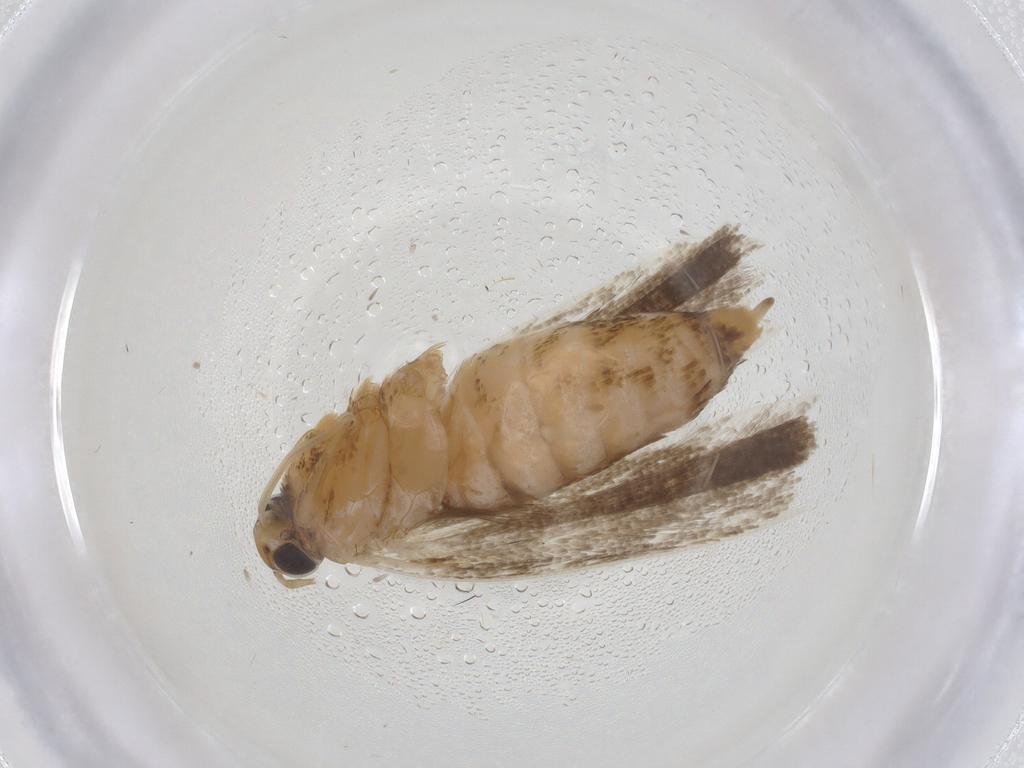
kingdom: Animalia
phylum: Arthropoda
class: Insecta
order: Lepidoptera
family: Gelechiidae
